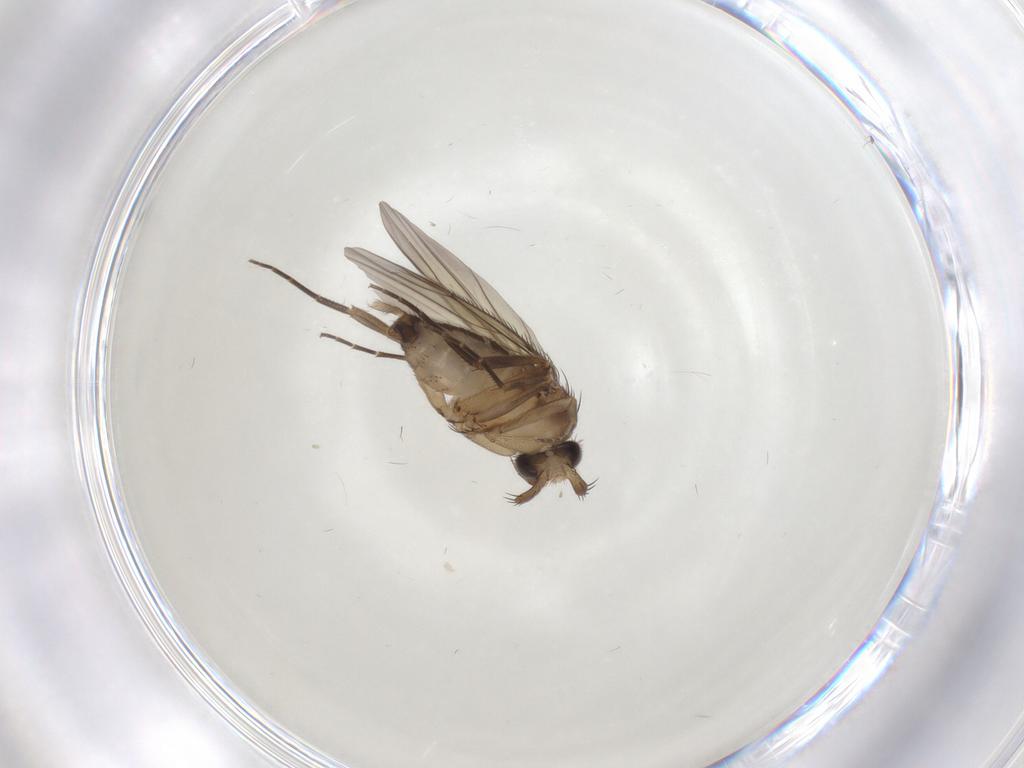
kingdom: Animalia
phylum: Arthropoda
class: Insecta
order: Diptera
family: Phoridae
